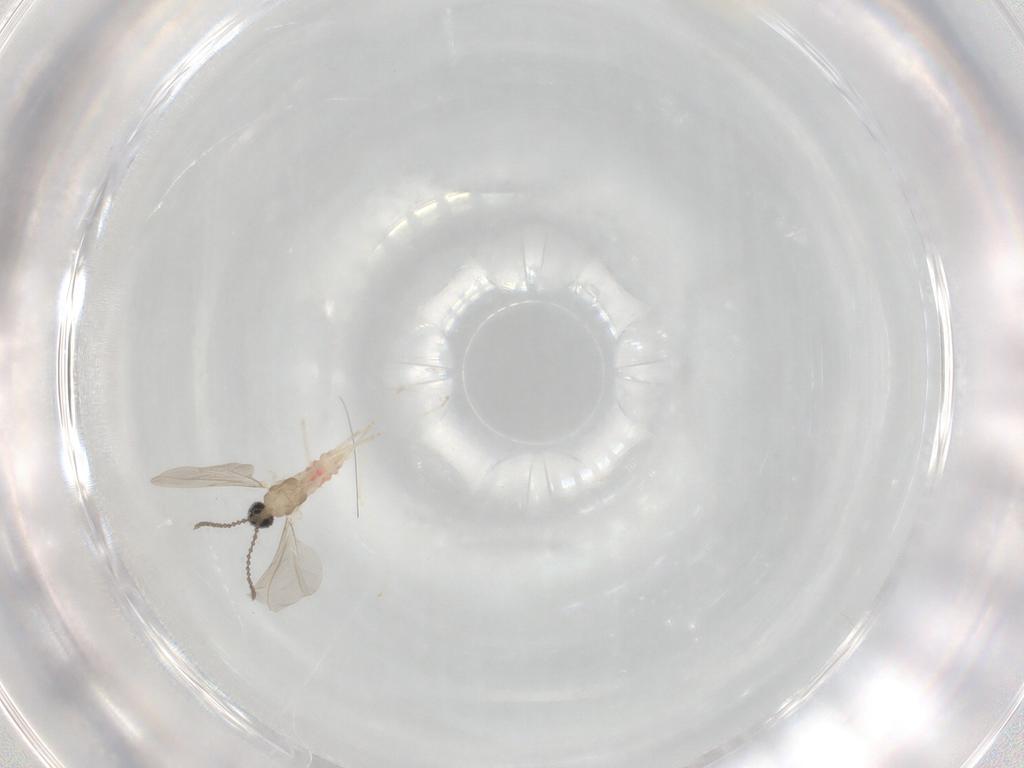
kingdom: Animalia
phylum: Arthropoda
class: Insecta
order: Diptera
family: Cecidomyiidae
